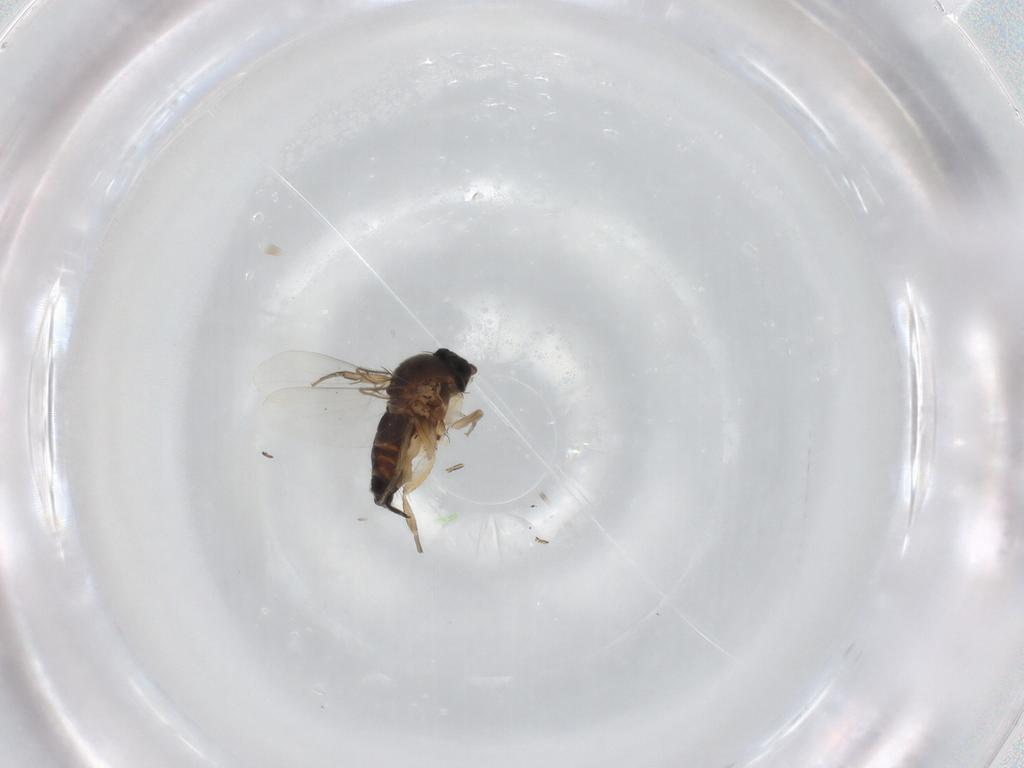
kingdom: Animalia
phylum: Arthropoda
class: Insecta
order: Diptera
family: Phoridae
